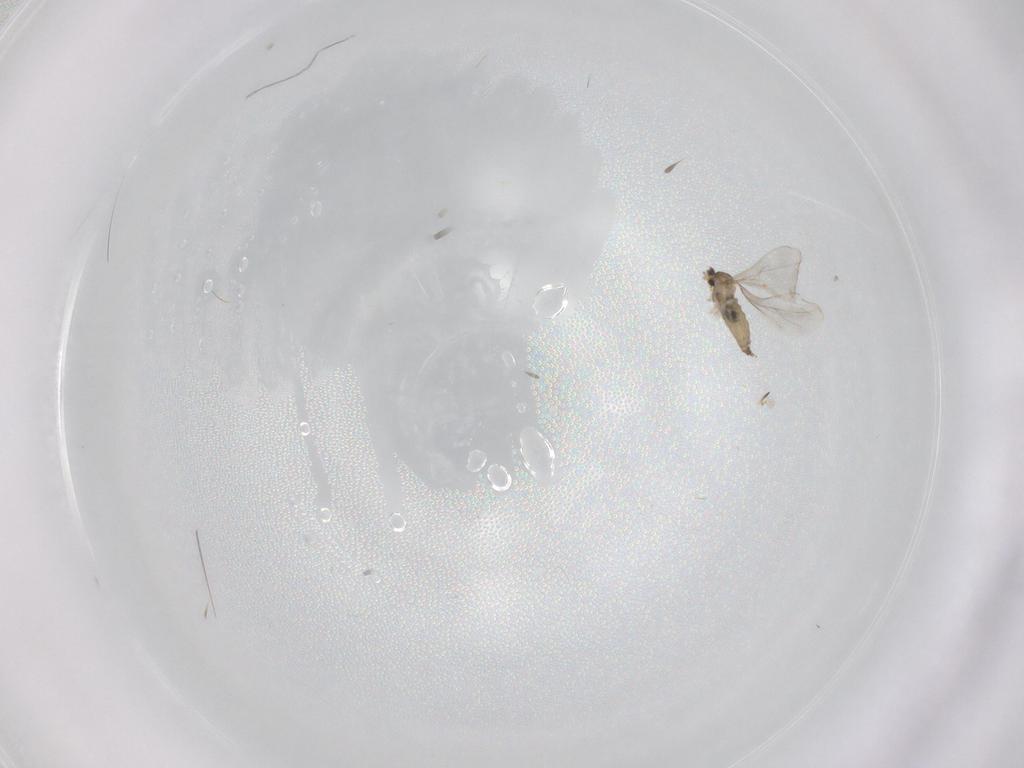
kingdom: Animalia
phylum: Arthropoda
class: Insecta
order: Diptera
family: Cecidomyiidae
